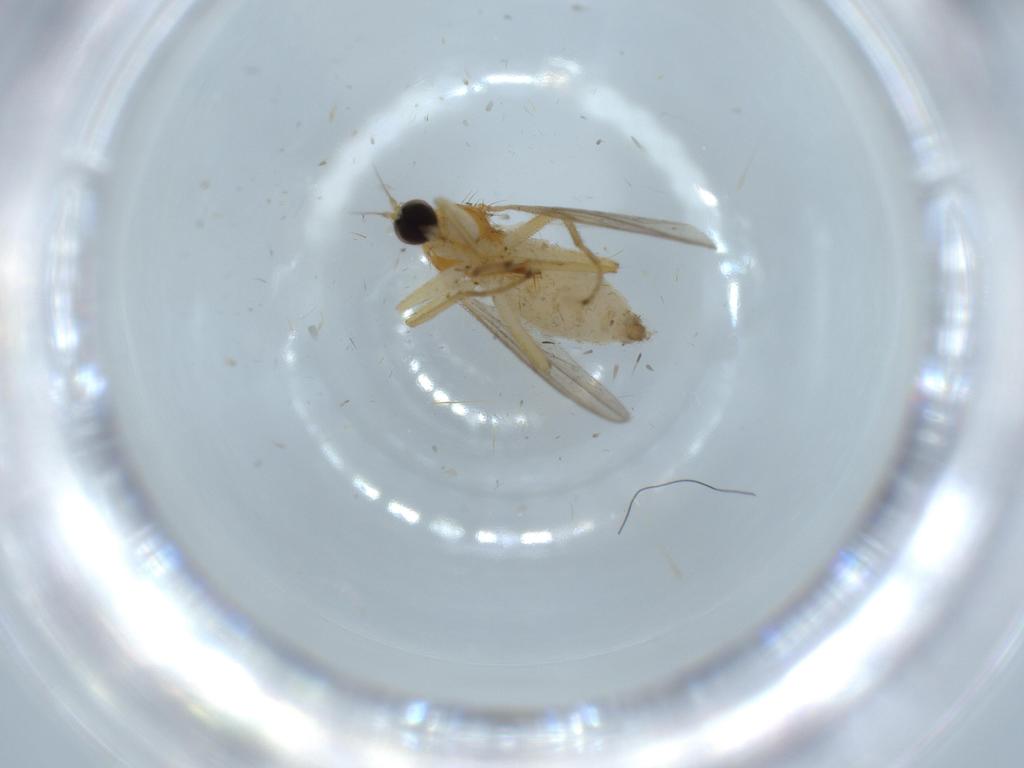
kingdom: Animalia
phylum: Arthropoda
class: Insecta
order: Diptera
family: Hybotidae
